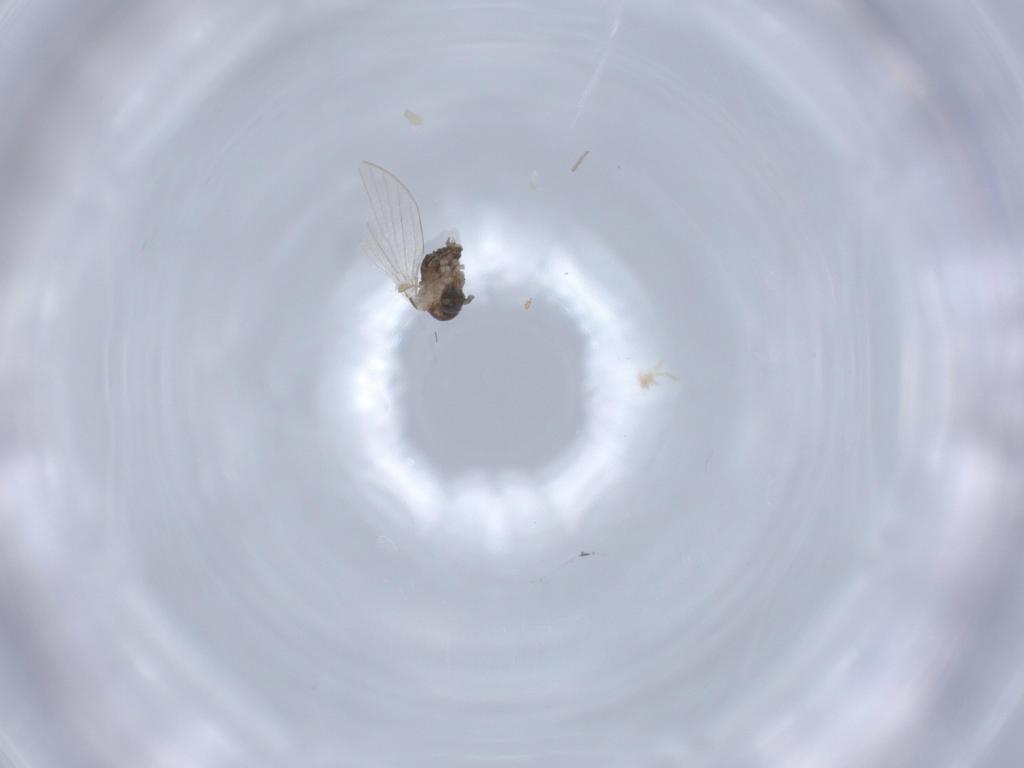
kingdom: Animalia
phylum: Arthropoda
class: Insecta
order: Diptera
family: Psychodidae
